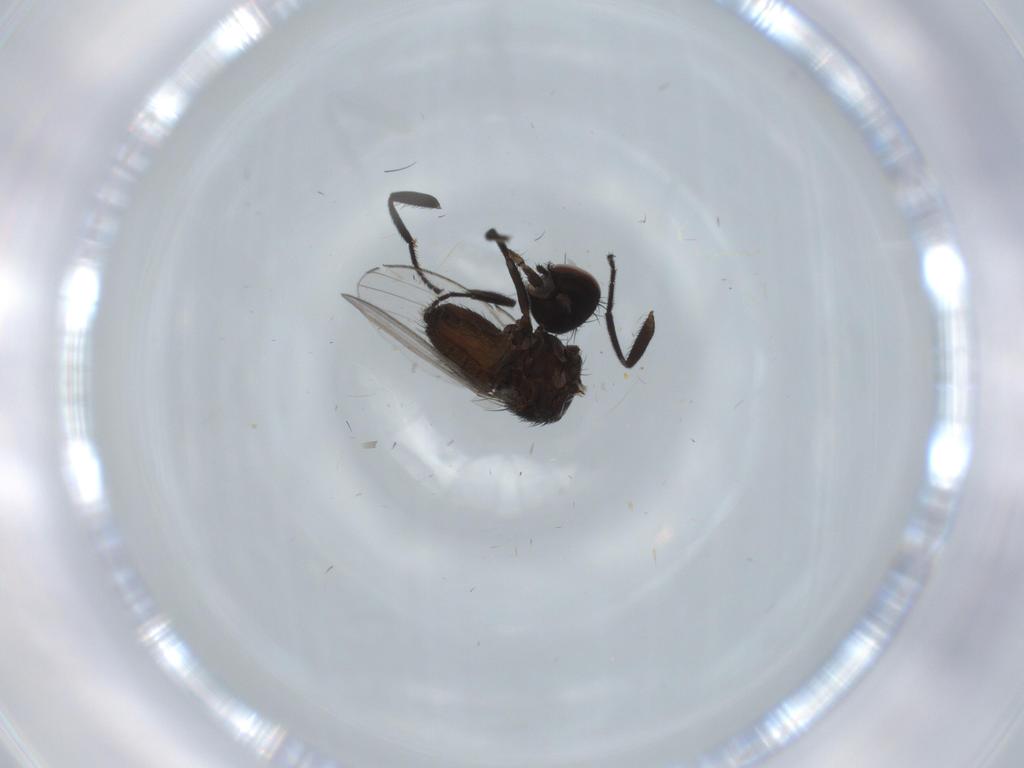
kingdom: Animalia
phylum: Arthropoda
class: Insecta
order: Diptera
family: Milichiidae
